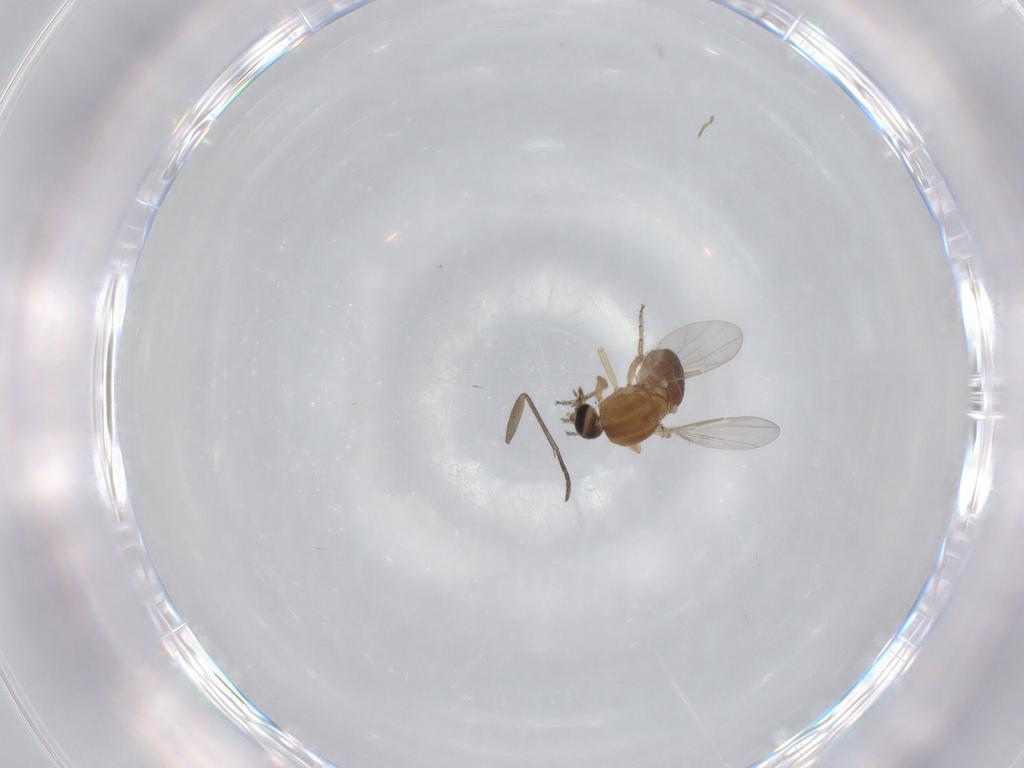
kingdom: Animalia
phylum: Arthropoda
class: Insecta
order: Diptera
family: Ceratopogonidae
